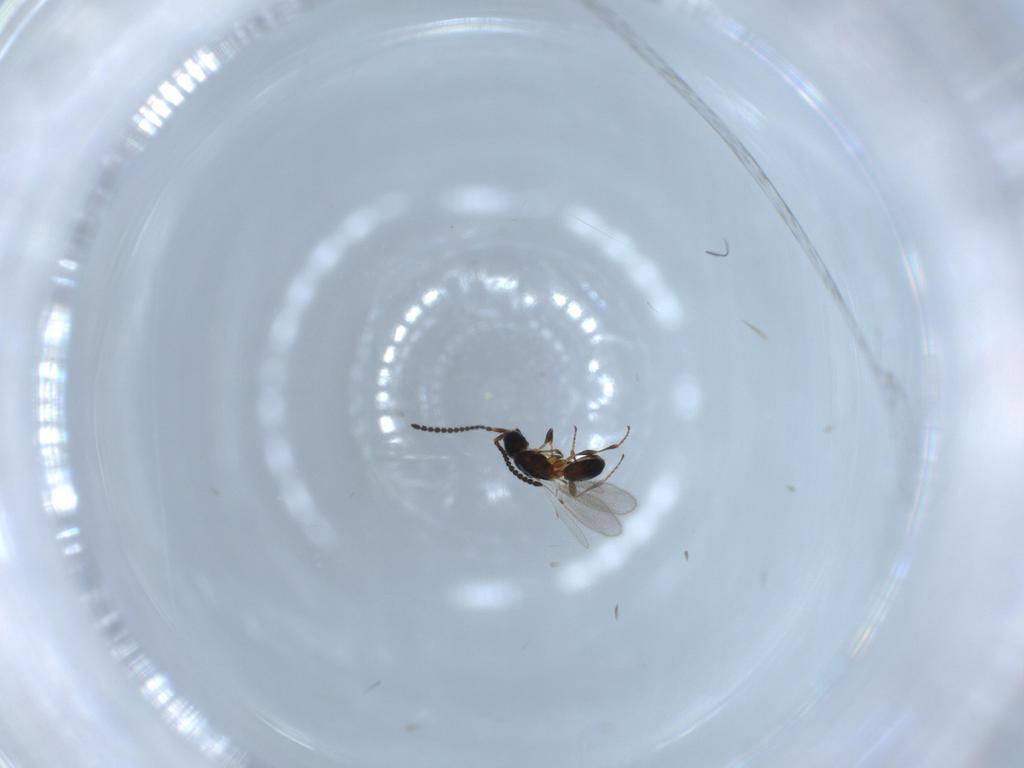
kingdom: Animalia
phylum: Arthropoda
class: Insecta
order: Hymenoptera
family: Diapriidae
